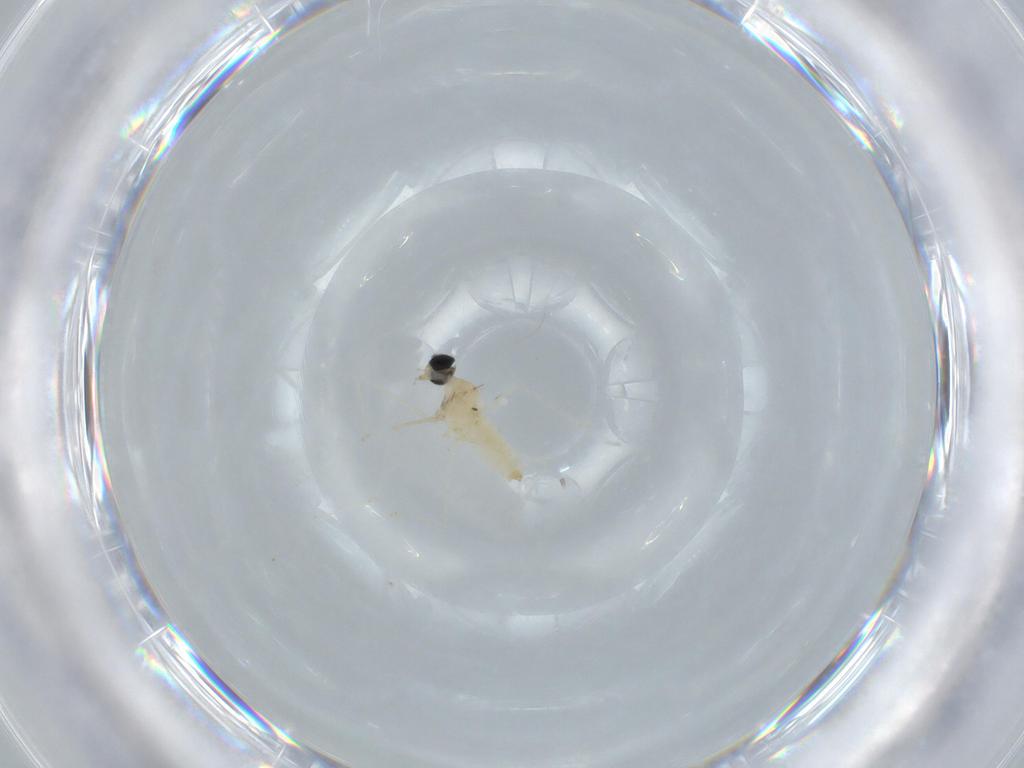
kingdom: Animalia
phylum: Arthropoda
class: Insecta
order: Diptera
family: Cecidomyiidae
